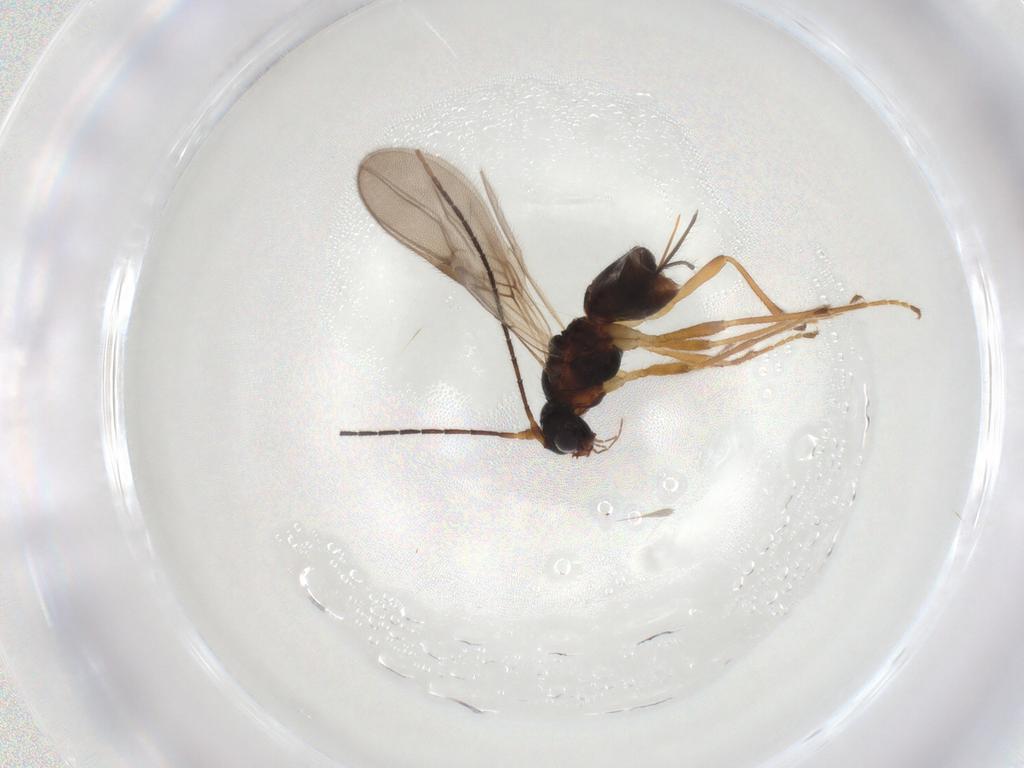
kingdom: Animalia
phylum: Arthropoda
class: Insecta
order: Hymenoptera
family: Braconidae
